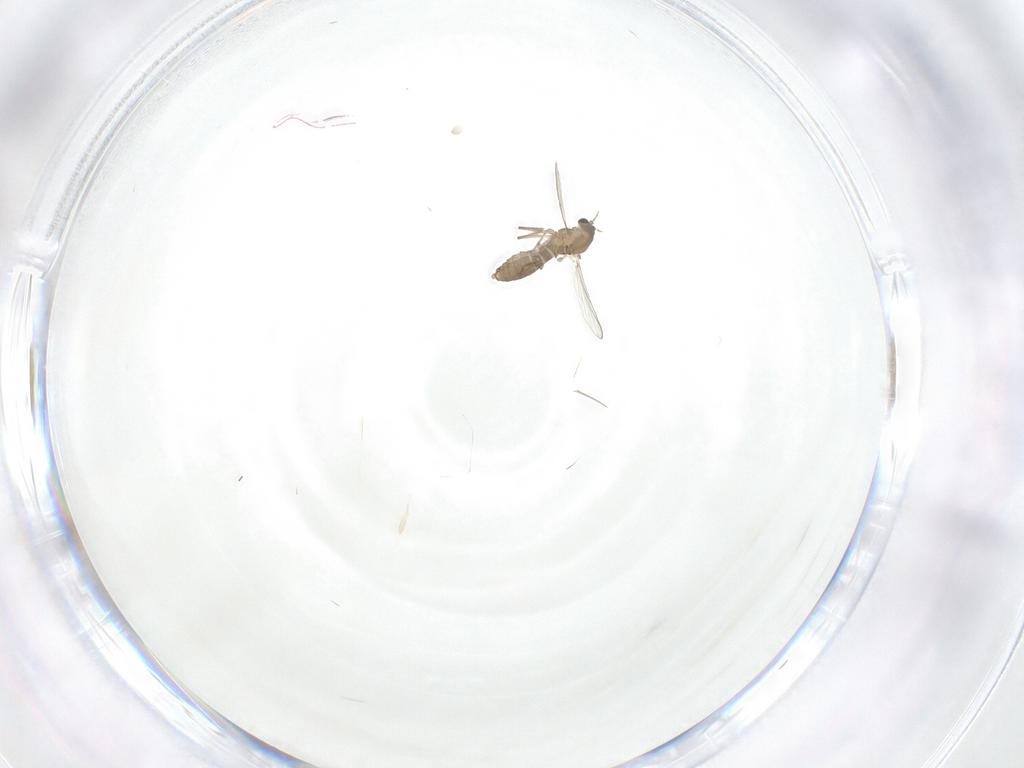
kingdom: Animalia
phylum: Arthropoda
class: Insecta
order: Diptera
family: Phoridae
